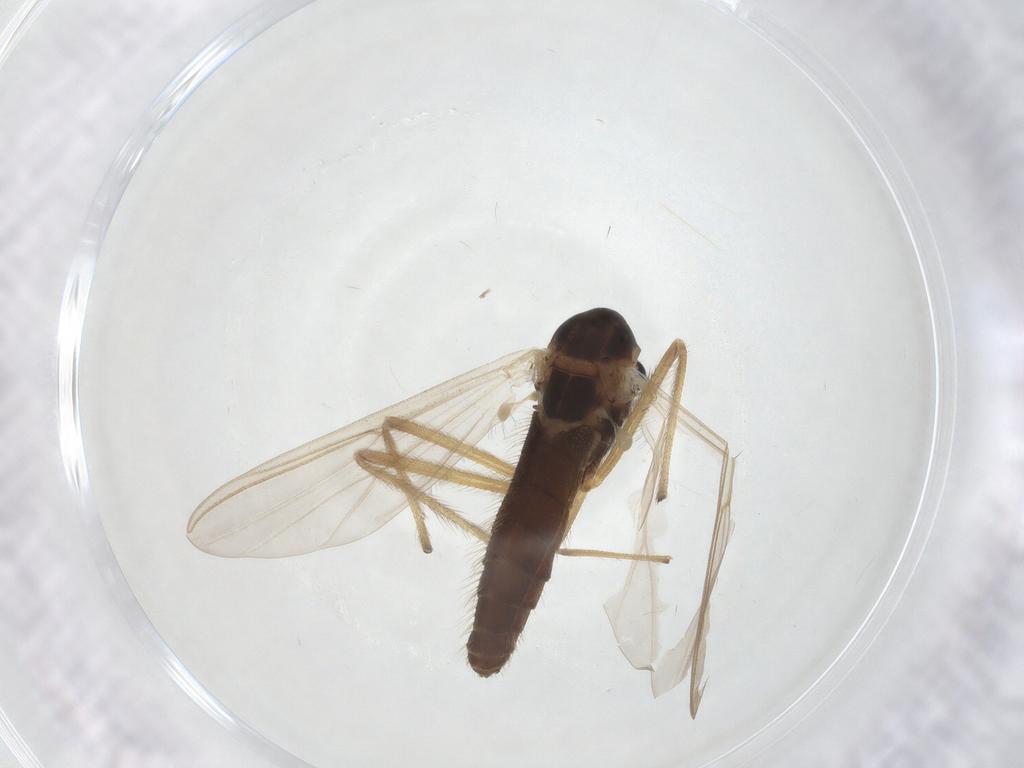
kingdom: Animalia
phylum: Arthropoda
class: Insecta
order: Diptera
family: Chironomidae
